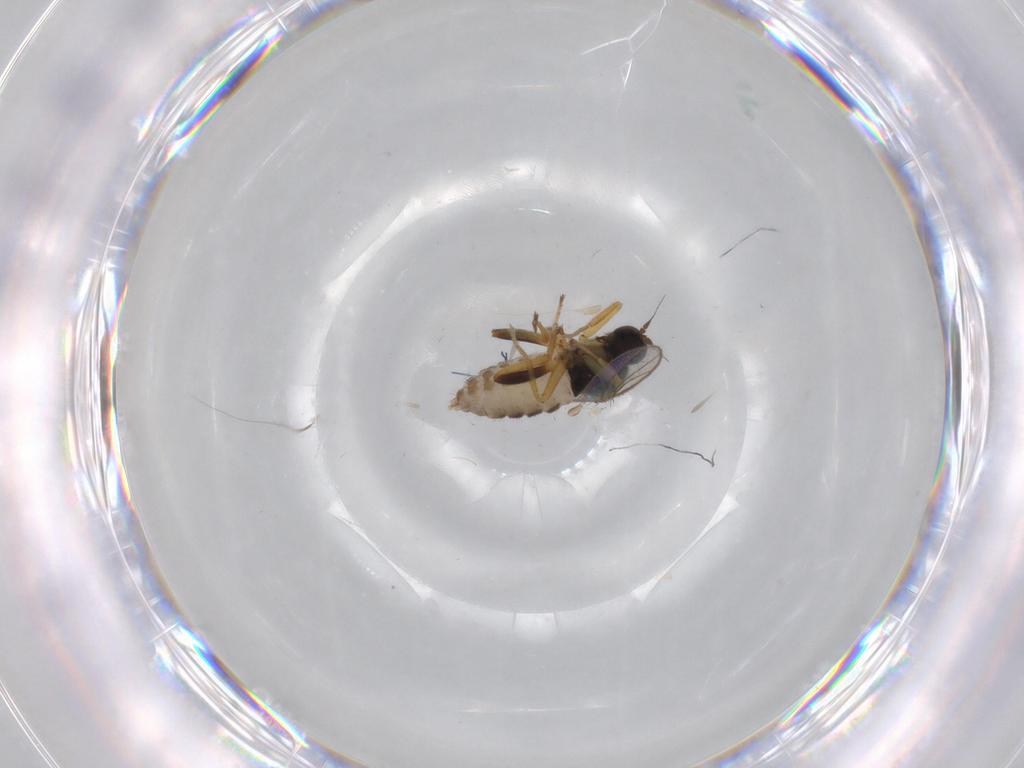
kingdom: Animalia
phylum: Arthropoda
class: Insecta
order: Diptera
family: Hybotidae
